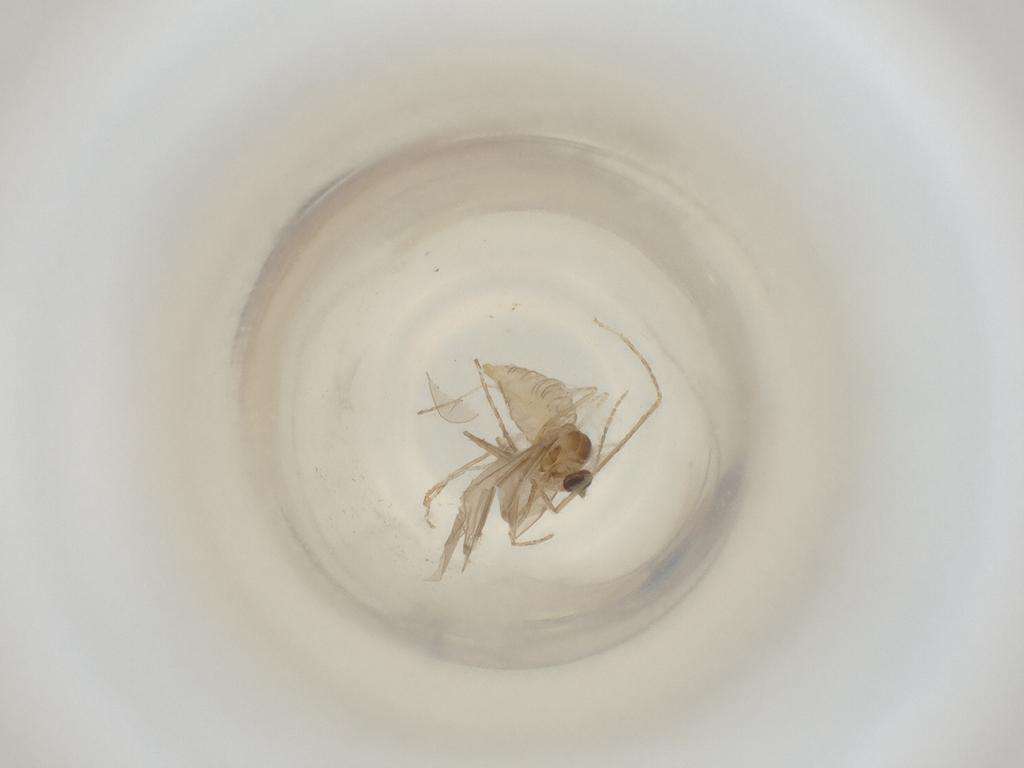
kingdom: Animalia
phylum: Arthropoda
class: Insecta
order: Diptera
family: Cecidomyiidae
